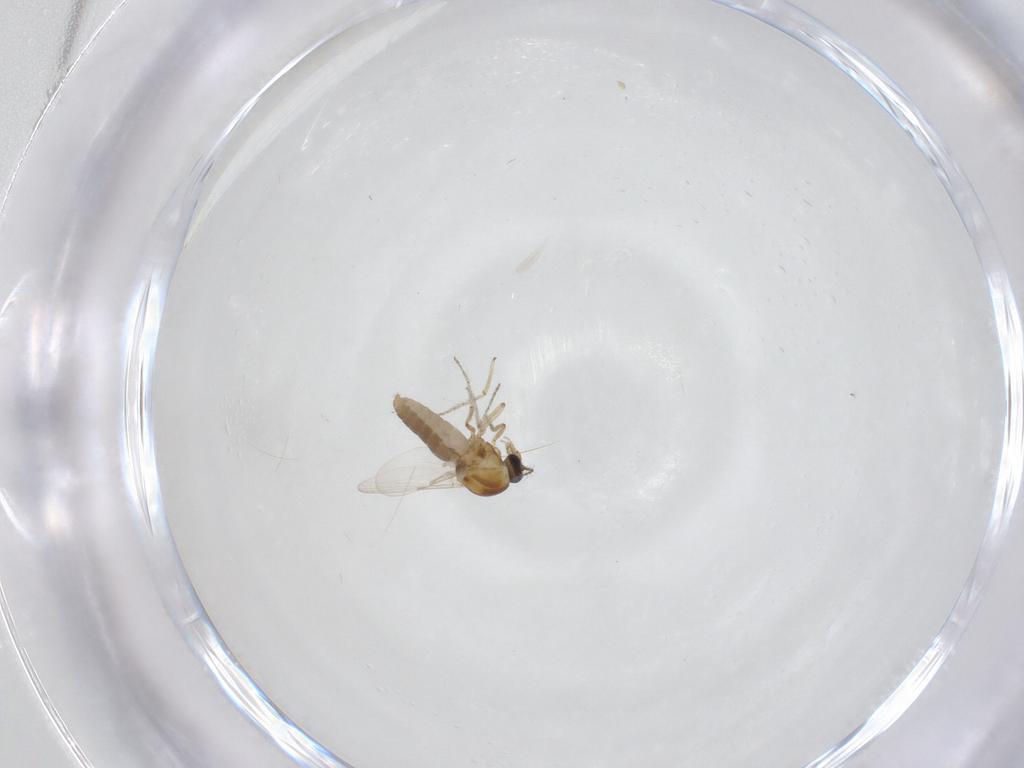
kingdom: Animalia
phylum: Arthropoda
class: Insecta
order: Diptera
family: Ceratopogonidae
